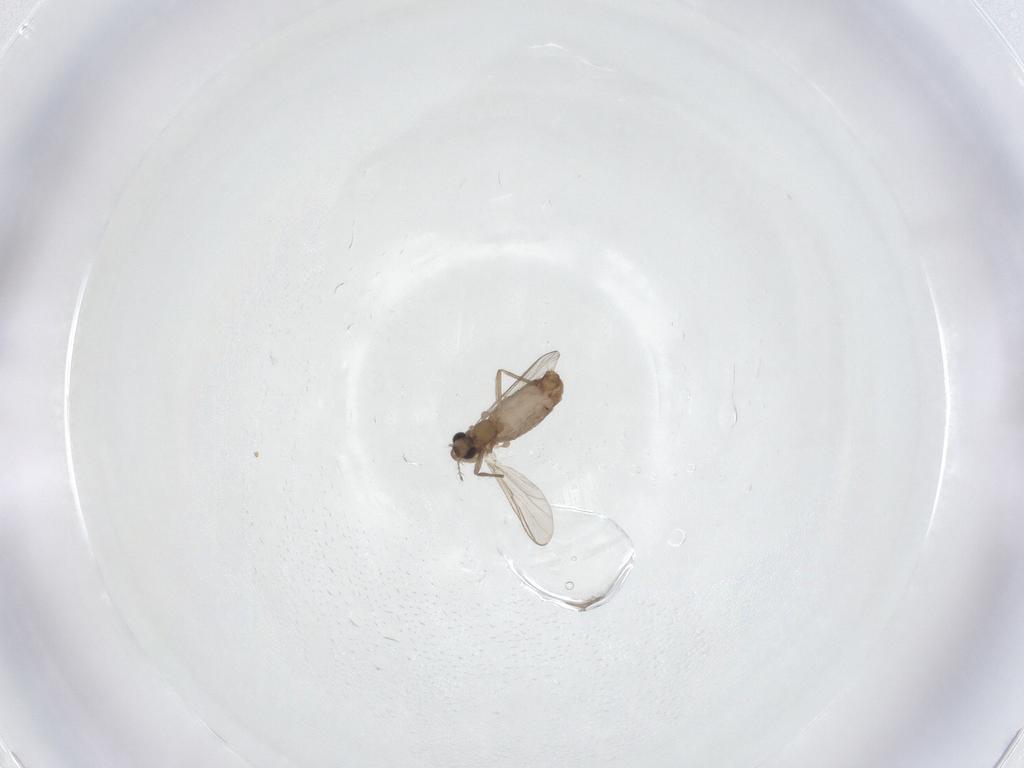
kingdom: Animalia
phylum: Arthropoda
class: Insecta
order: Diptera
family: Chironomidae
